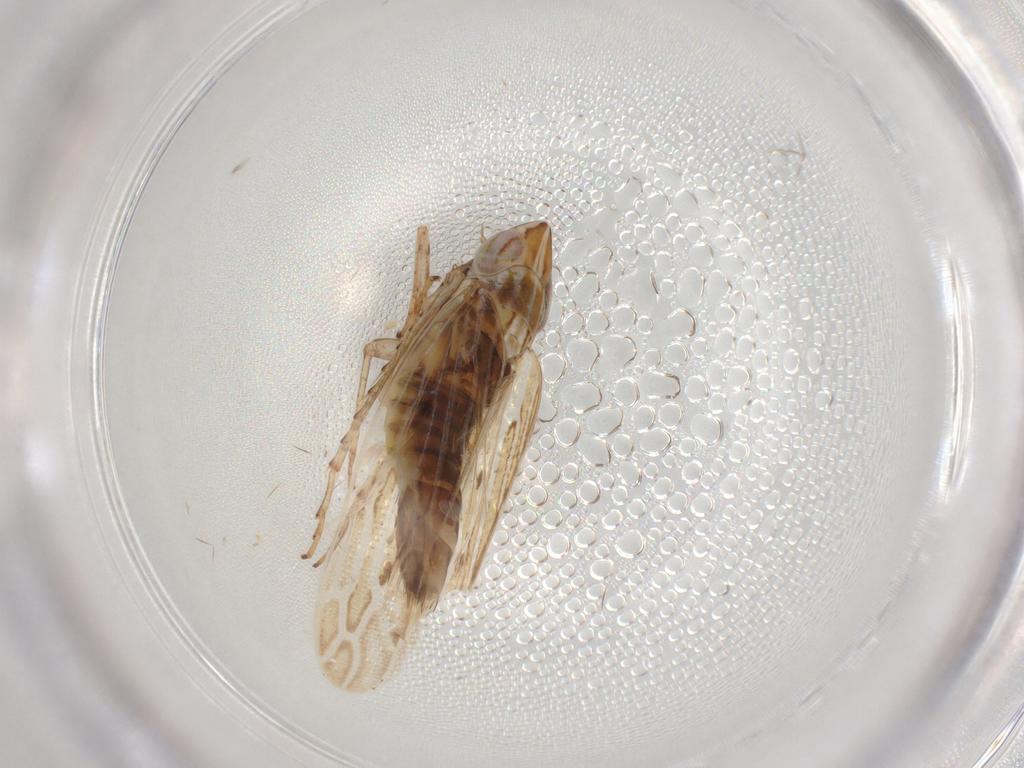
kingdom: Animalia
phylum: Arthropoda
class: Insecta
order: Hemiptera
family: Cicadellidae
